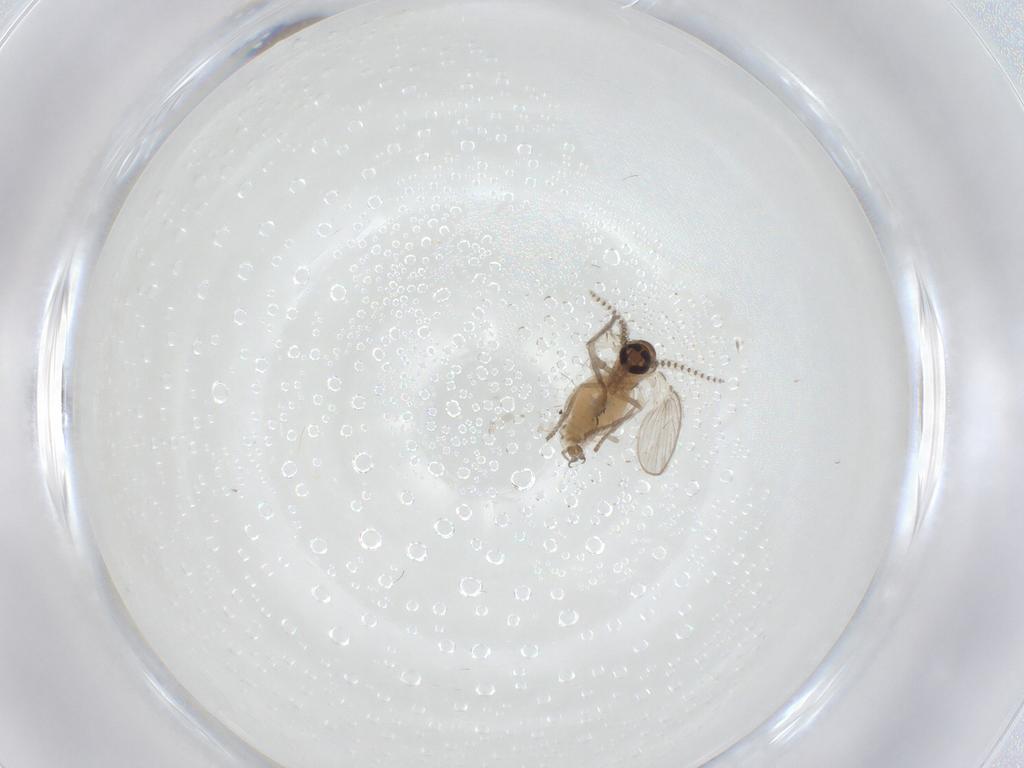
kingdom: Animalia
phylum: Arthropoda
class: Insecta
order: Diptera
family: Psychodidae
